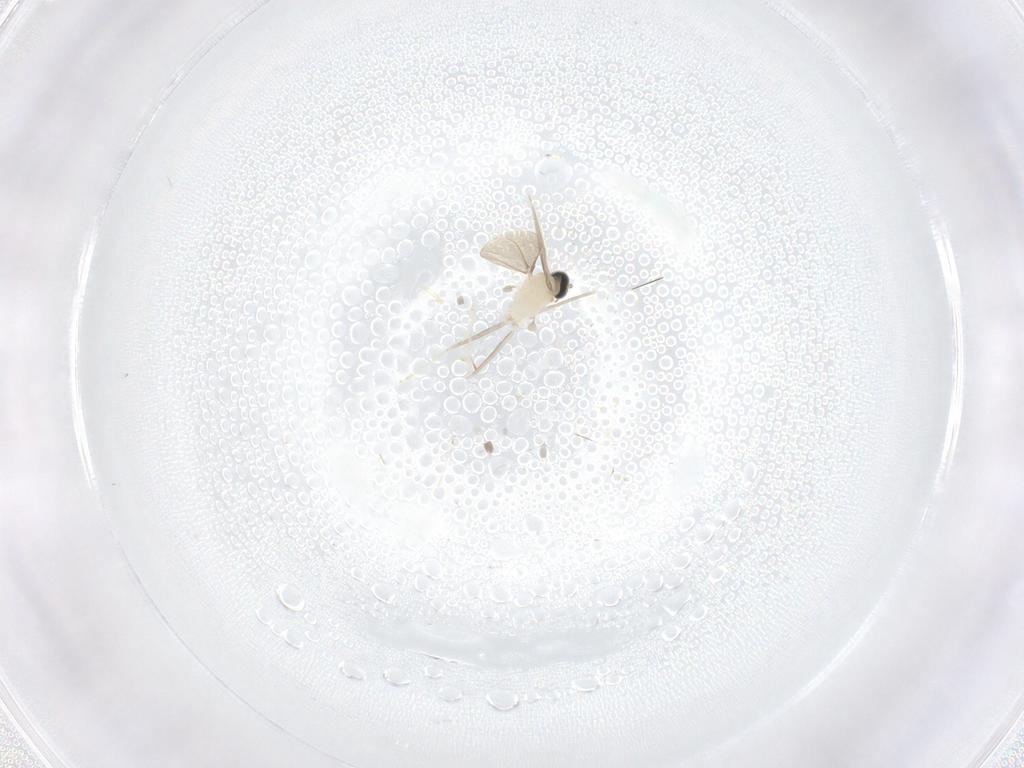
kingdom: Animalia
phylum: Arthropoda
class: Insecta
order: Diptera
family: Cecidomyiidae
